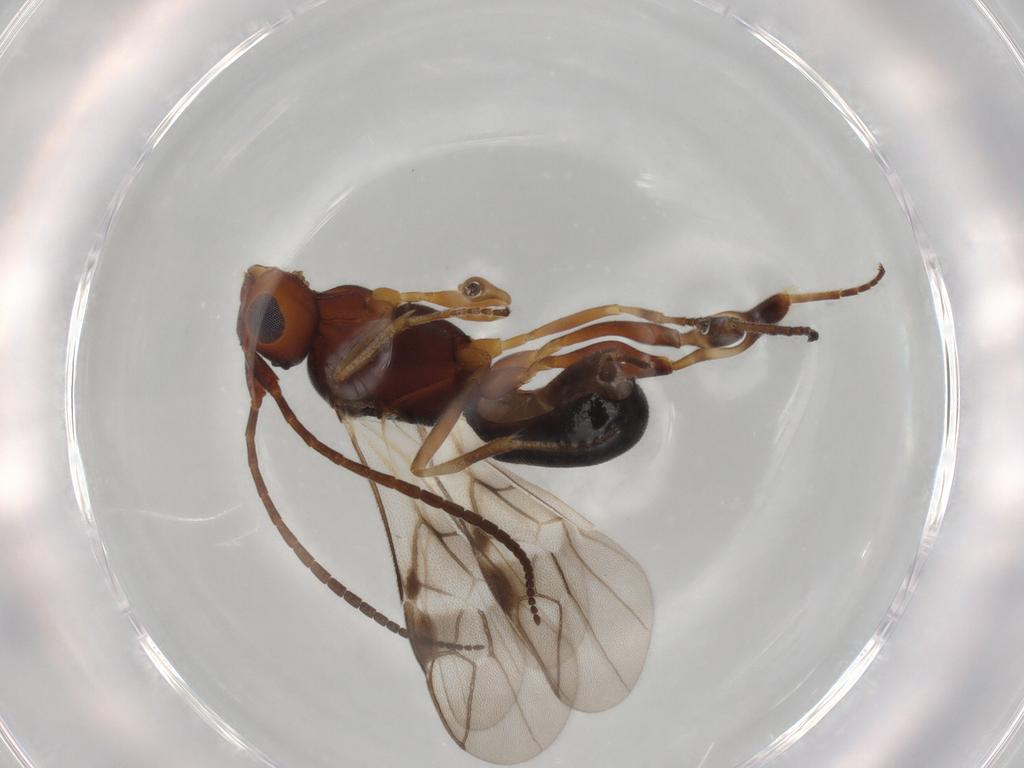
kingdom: Animalia
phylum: Arthropoda
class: Insecta
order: Hymenoptera
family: Braconidae
